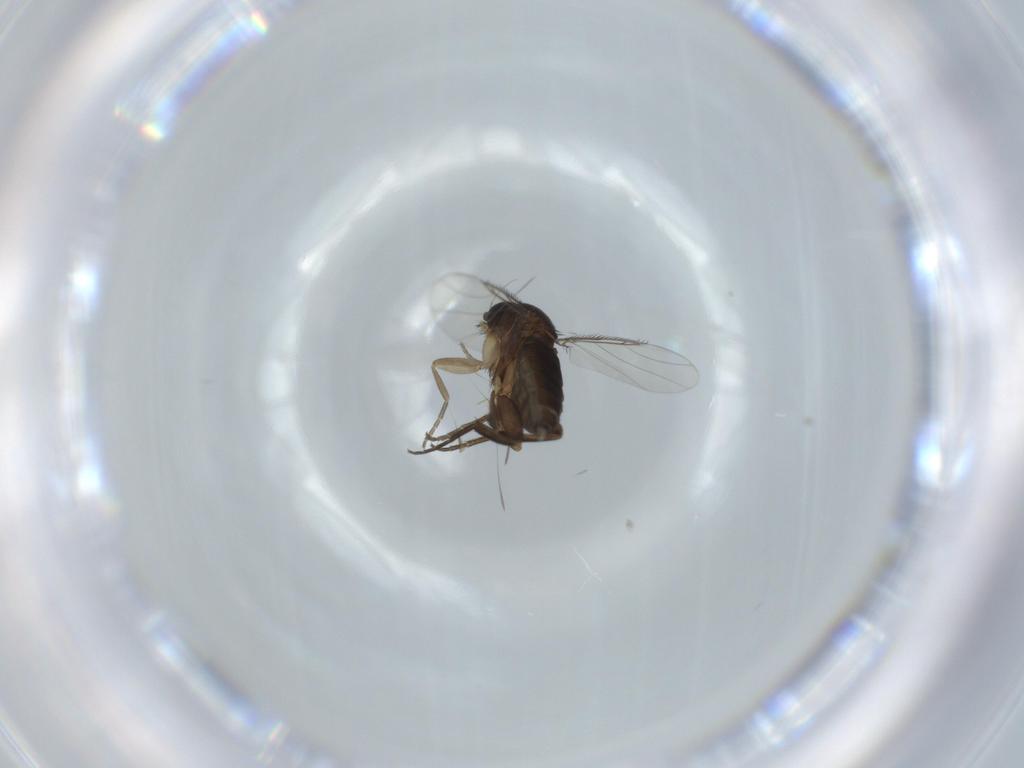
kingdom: Animalia
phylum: Arthropoda
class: Insecta
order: Diptera
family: Phoridae
